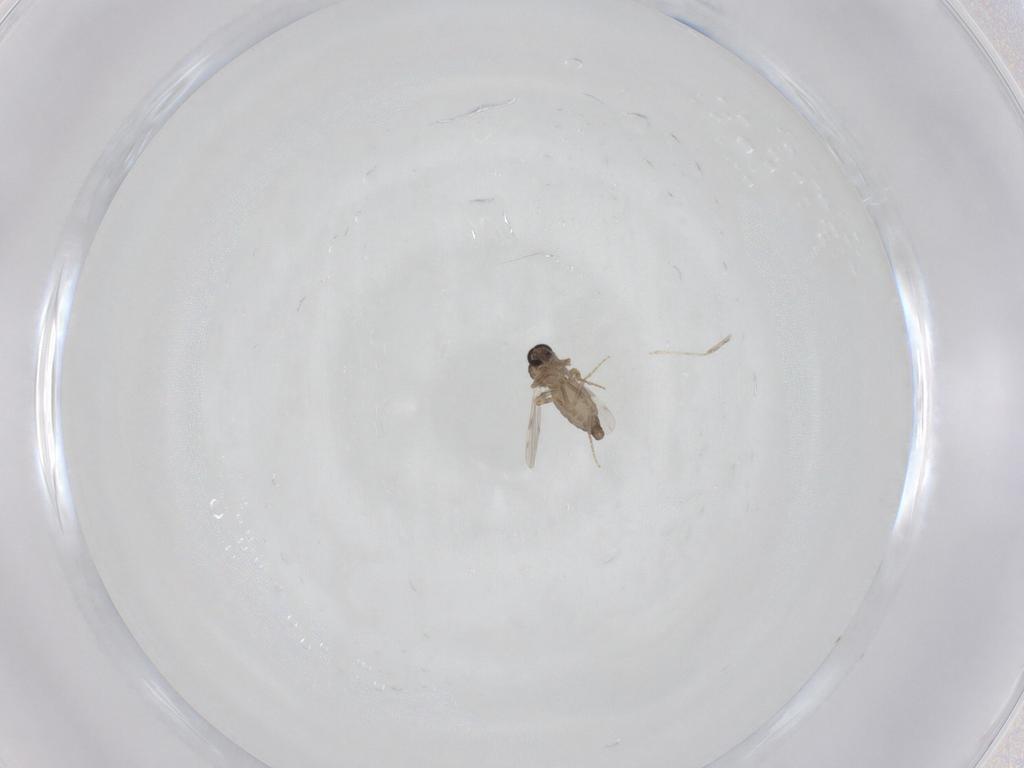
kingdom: Animalia
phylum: Arthropoda
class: Insecta
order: Diptera
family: Ceratopogonidae
